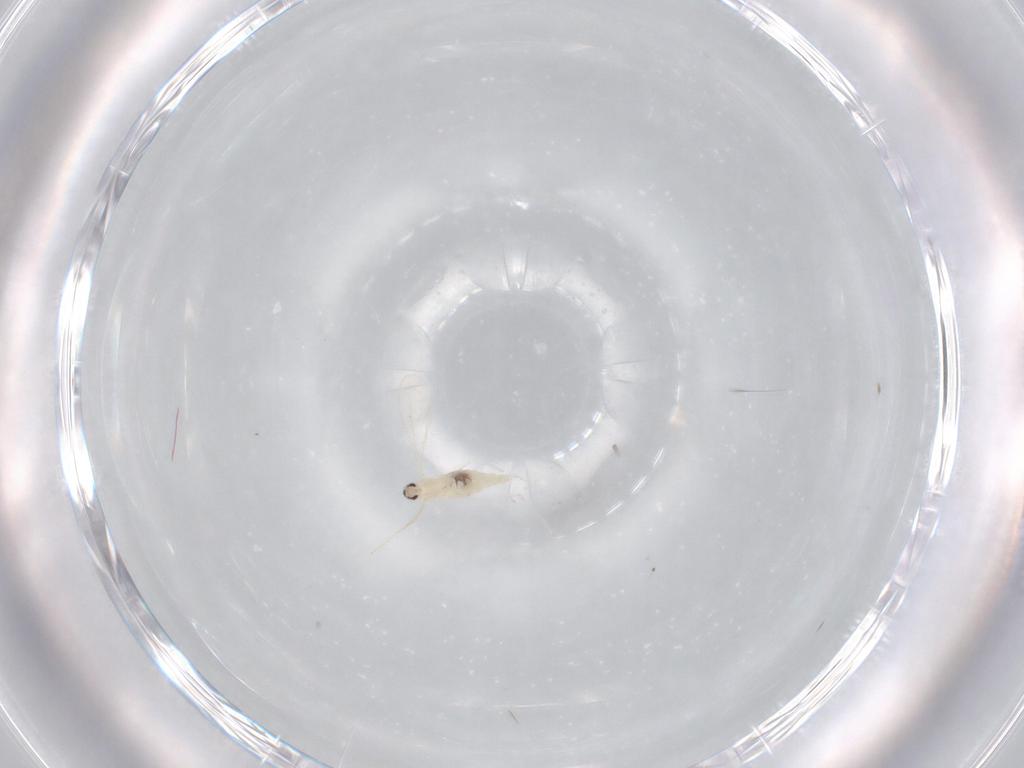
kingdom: Animalia
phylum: Arthropoda
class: Insecta
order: Diptera
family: Cecidomyiidae
